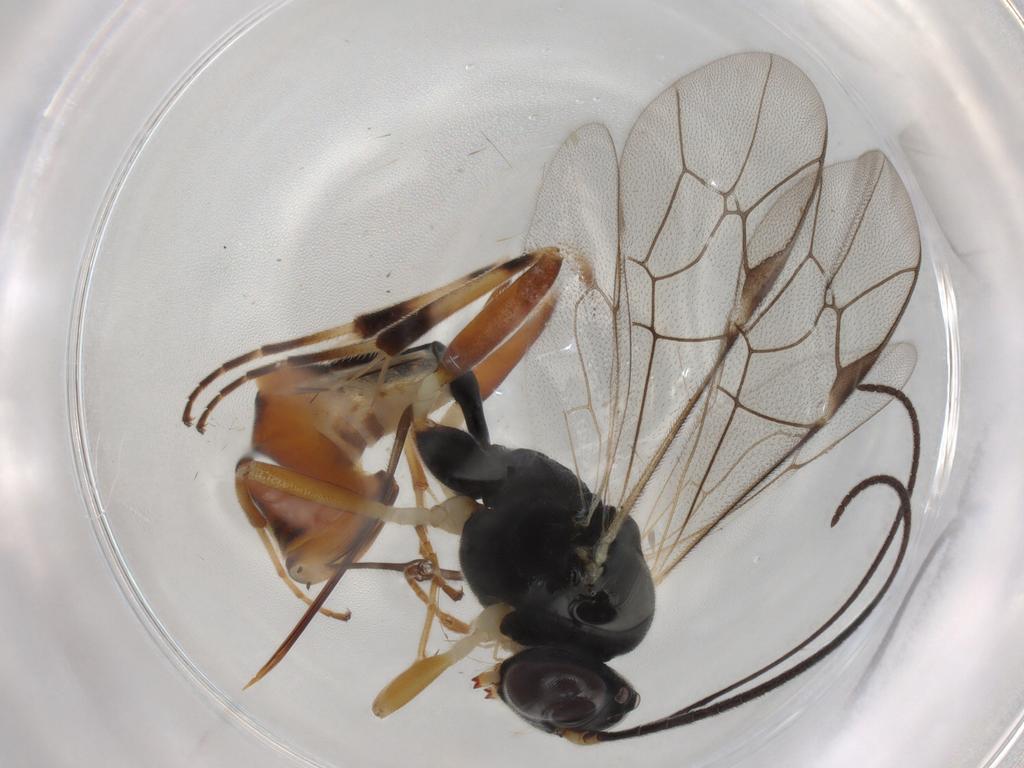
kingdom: Animalia
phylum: Arthropoda
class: Insecta
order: Hymenoptera
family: Ichneumonidae
